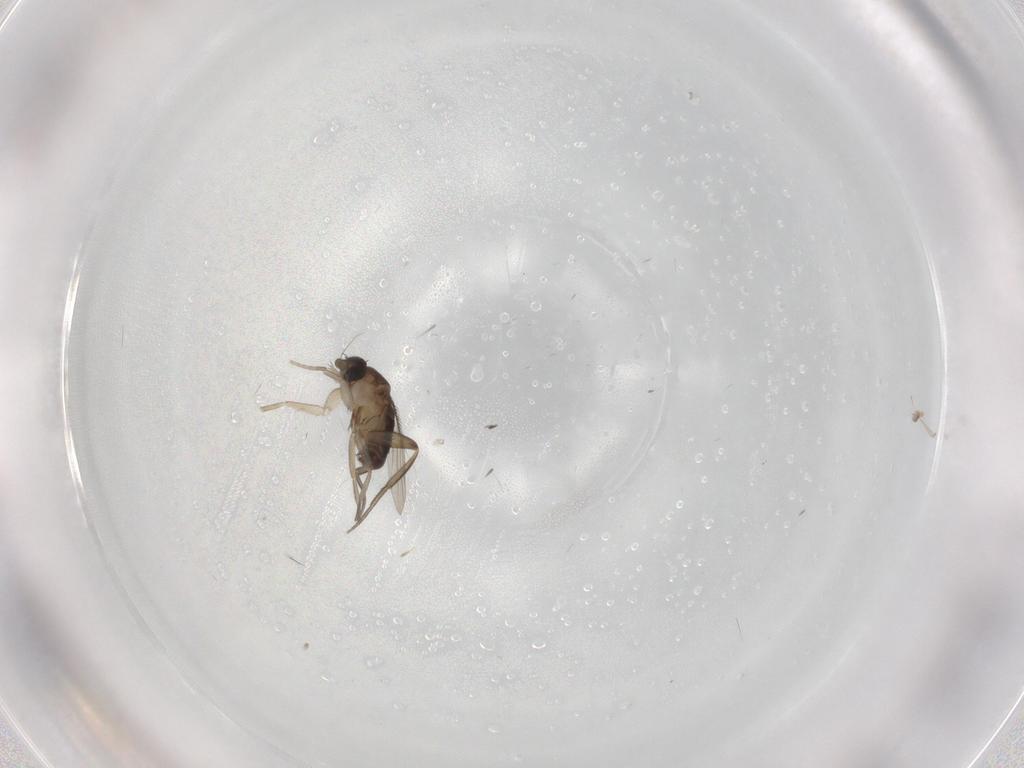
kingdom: Animalia
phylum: Arthropoda
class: Insecta
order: Diptera
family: Phoridae
